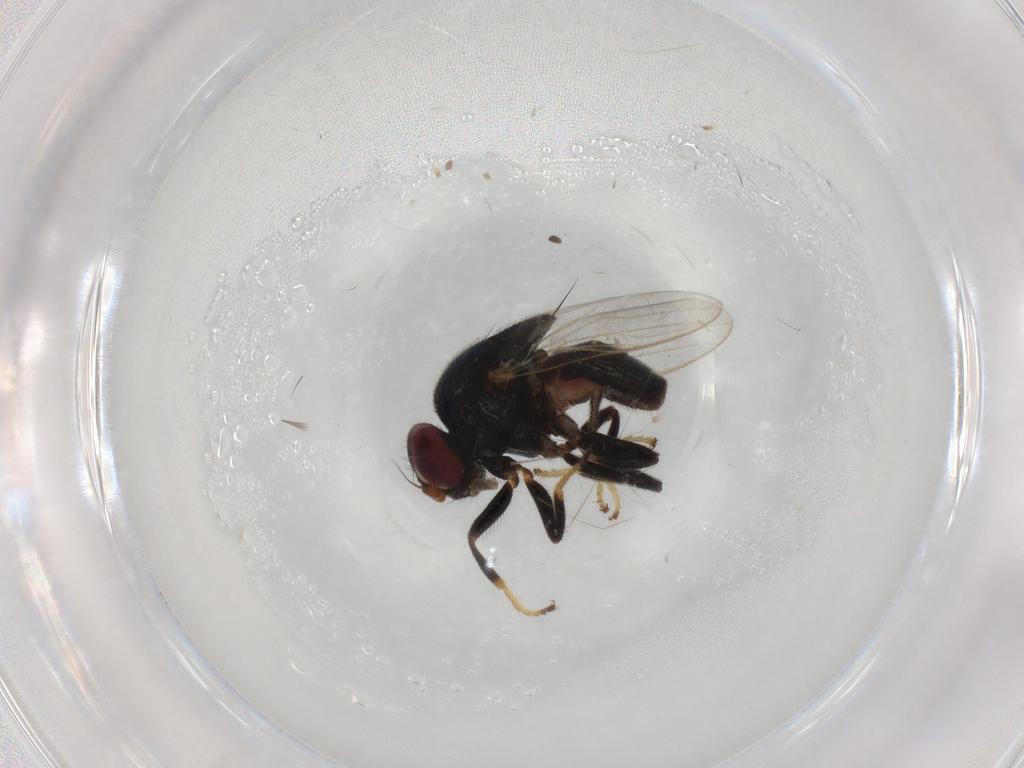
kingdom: Animalia
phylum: Arthropoda
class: Insecta
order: Diptera
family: Chloropidae
